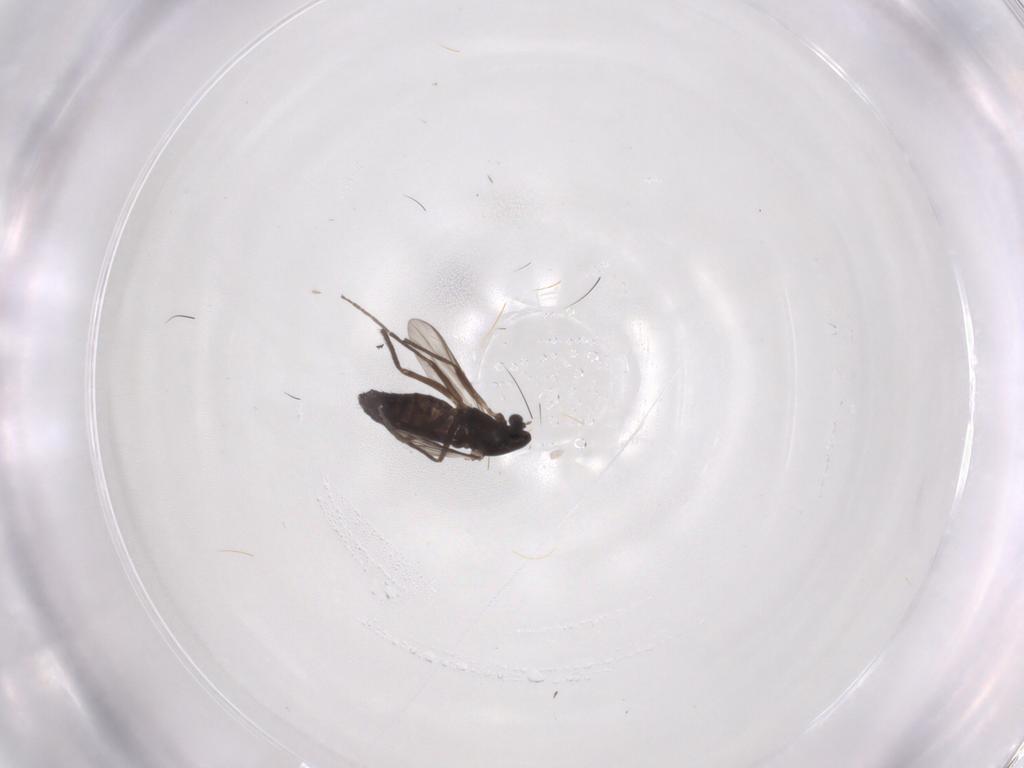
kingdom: Animalia
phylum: Arthropoda
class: Insecta
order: Diptera
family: Chironomidae
